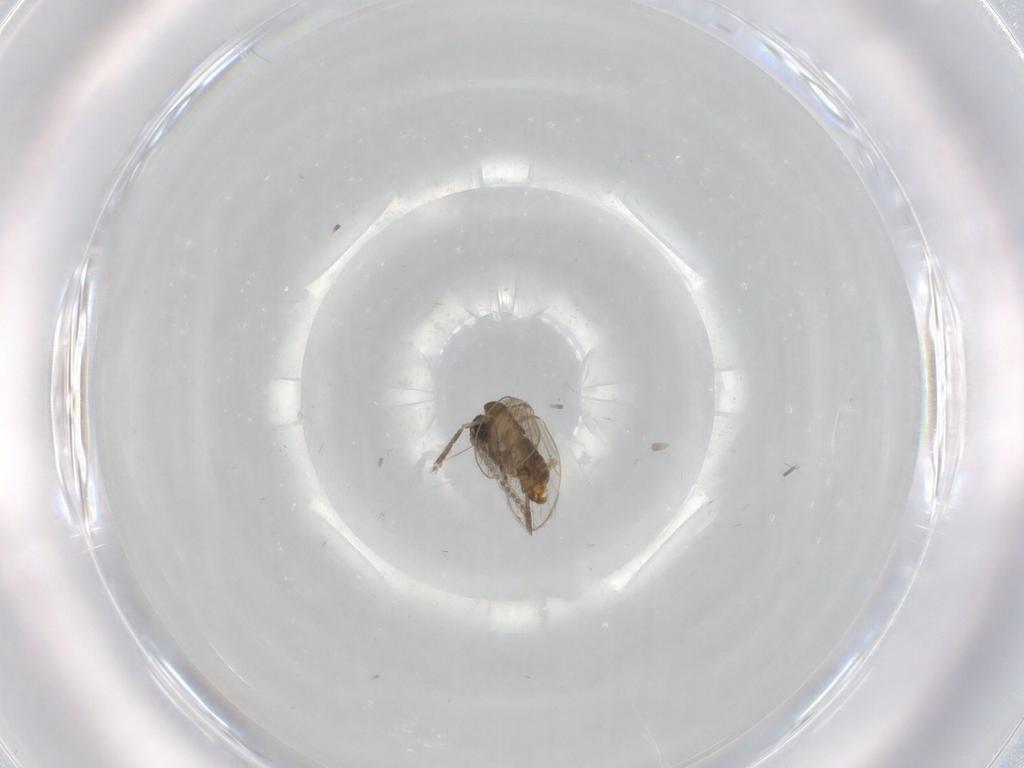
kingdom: Animalia
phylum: Arthropoda
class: Insecta
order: Diptera
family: Cecidomyiidae
